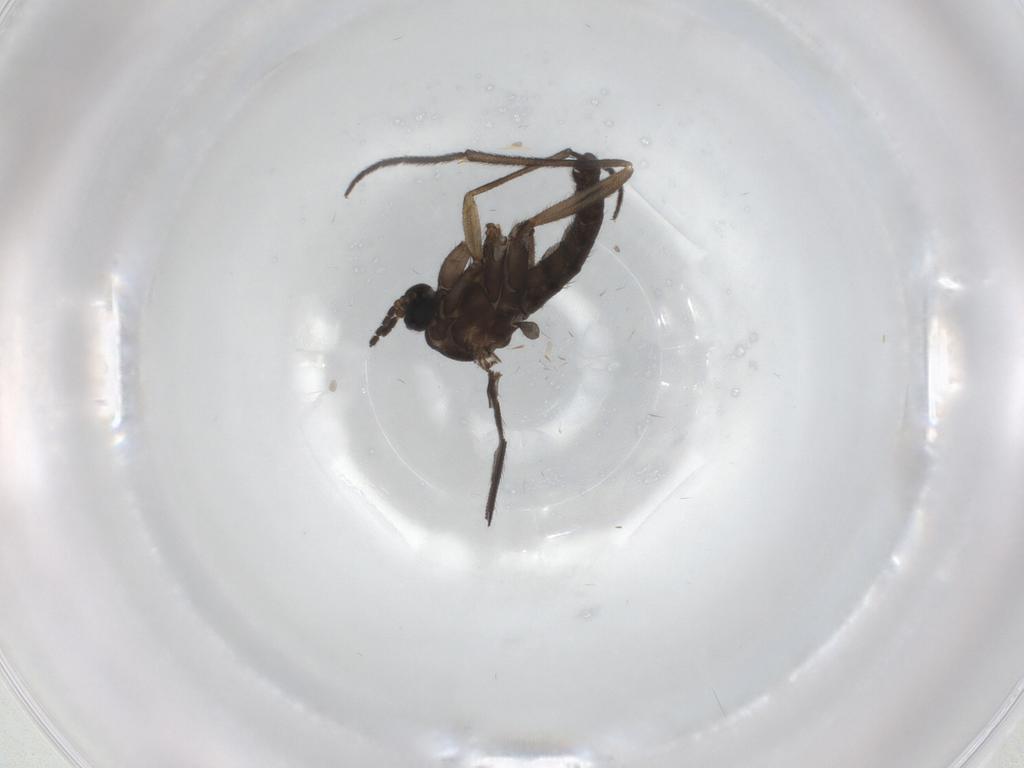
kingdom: Animalia
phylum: Arthropoda
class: Insecta
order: Diptera
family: Sciaridae
